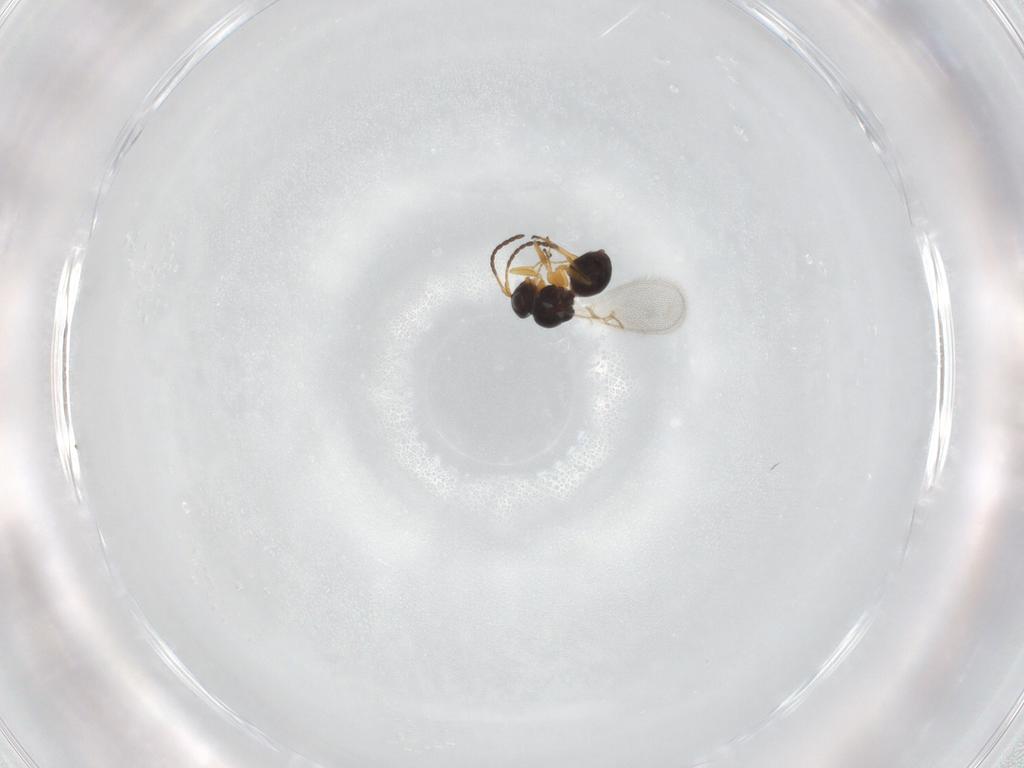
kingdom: Animalia
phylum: Arthropoda
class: Insecta
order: Hymenoptera
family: Figitidae
